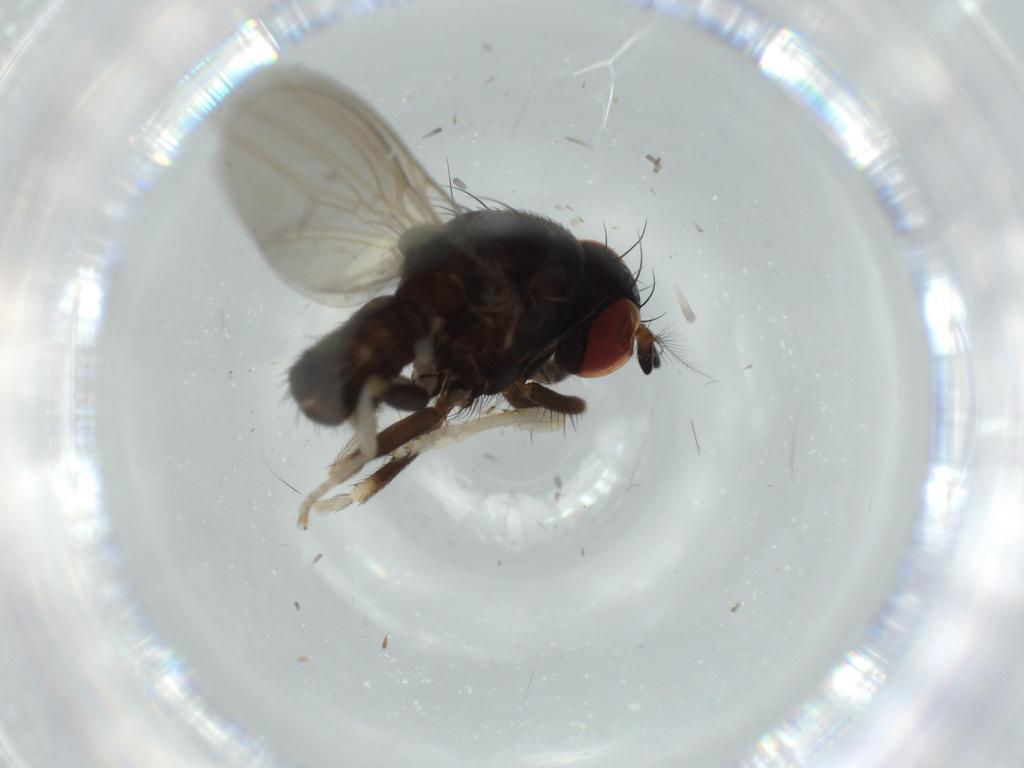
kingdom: Animalia
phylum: Arthropoda
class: Insecta
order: Diptera
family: Lauxaniidae
